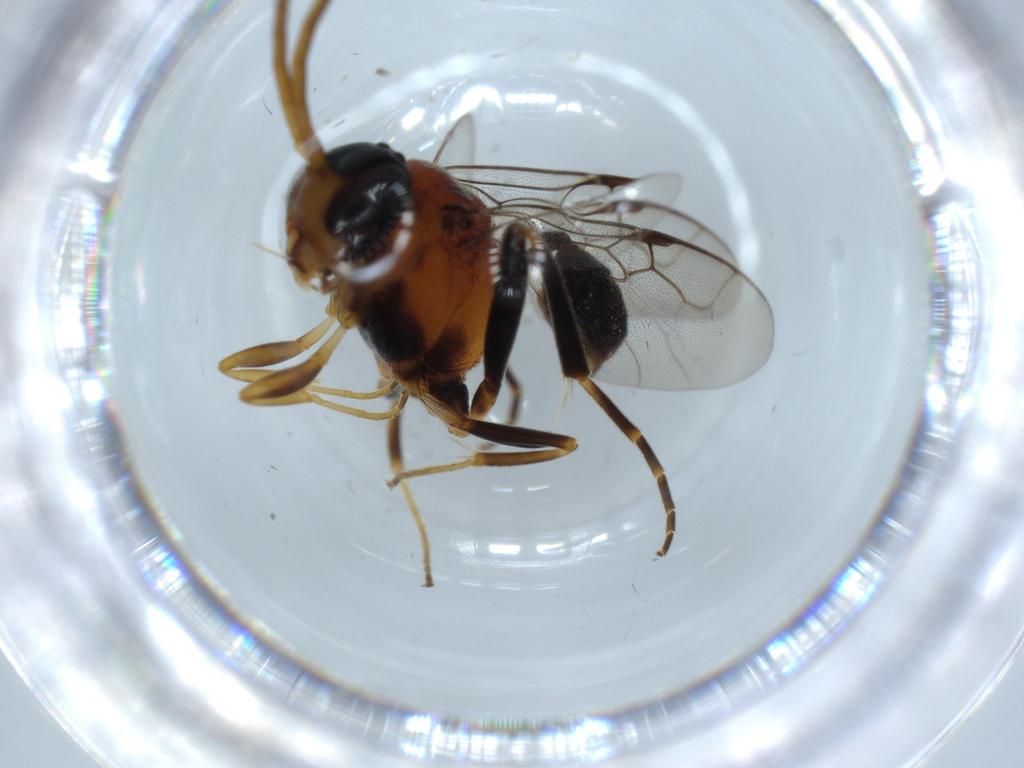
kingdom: Animalia
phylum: Arthropoda
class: Insecta
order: Hymenoptera
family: Evaniidae
